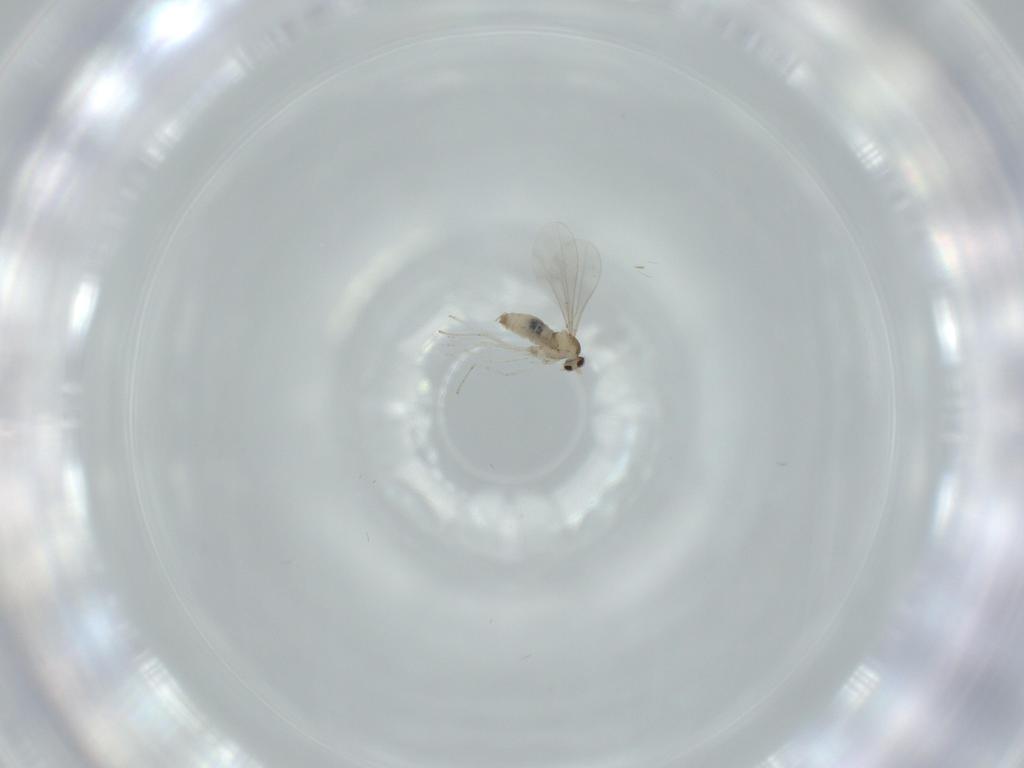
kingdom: Animalia
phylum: Arthropoda
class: Insecta
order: Diptera
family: Cecidomyiidae
